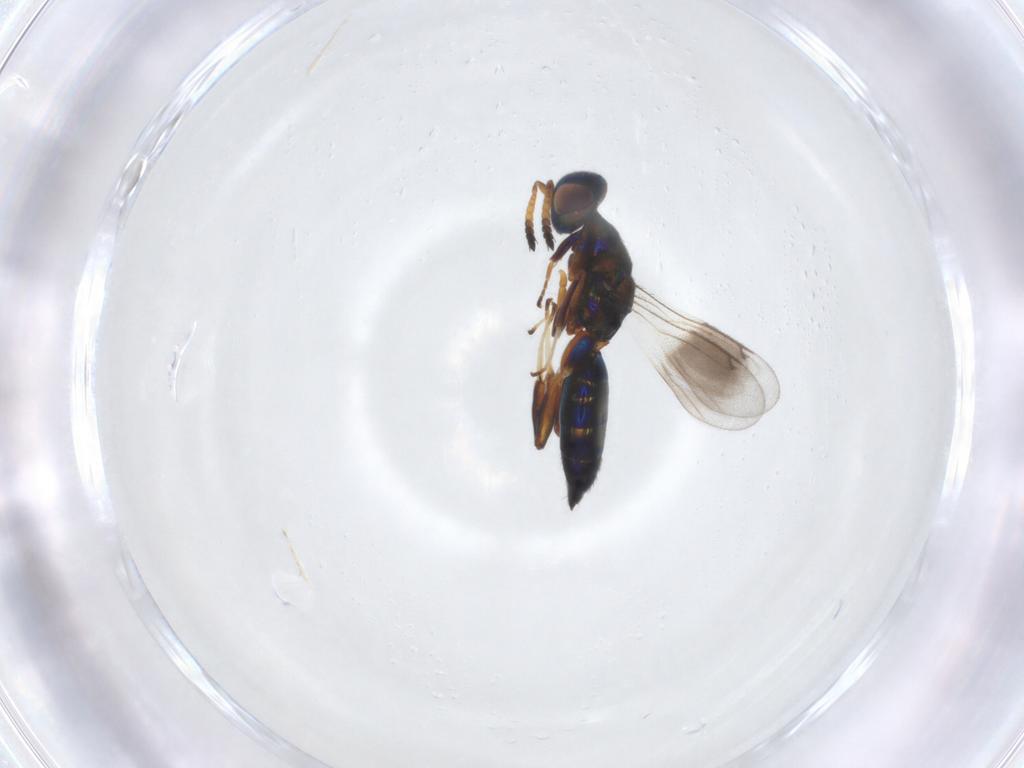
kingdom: Animalia
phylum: Arthropoda
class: Insecta
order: Hymenoptera
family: Cleonyminae
